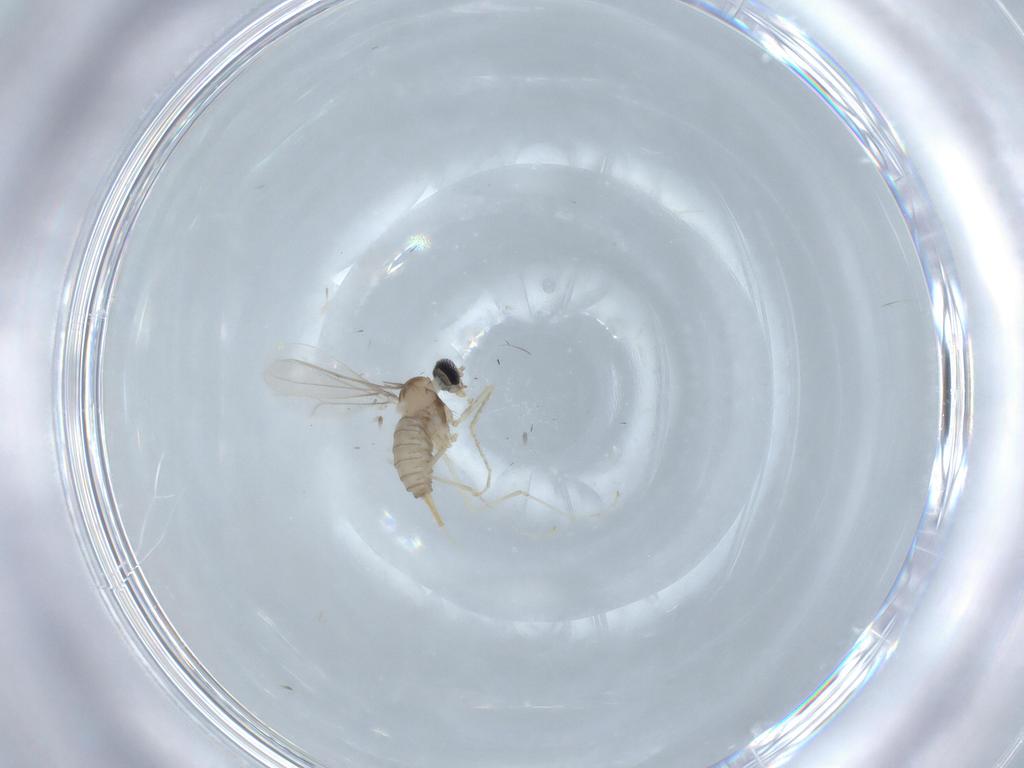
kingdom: Animalia
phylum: Arthropoda
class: Insecta
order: Diptera
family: Cecidomyiidae
